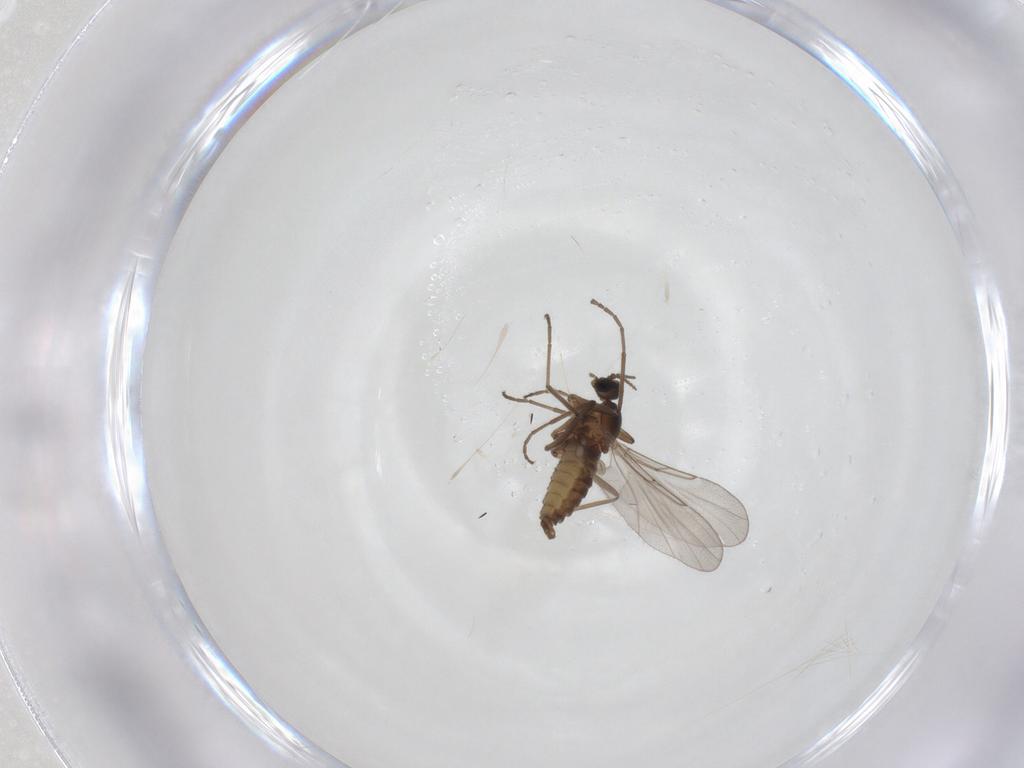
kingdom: Animalia
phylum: Arthropoda
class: Insecta
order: Diptera
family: Cecidomyiidae
